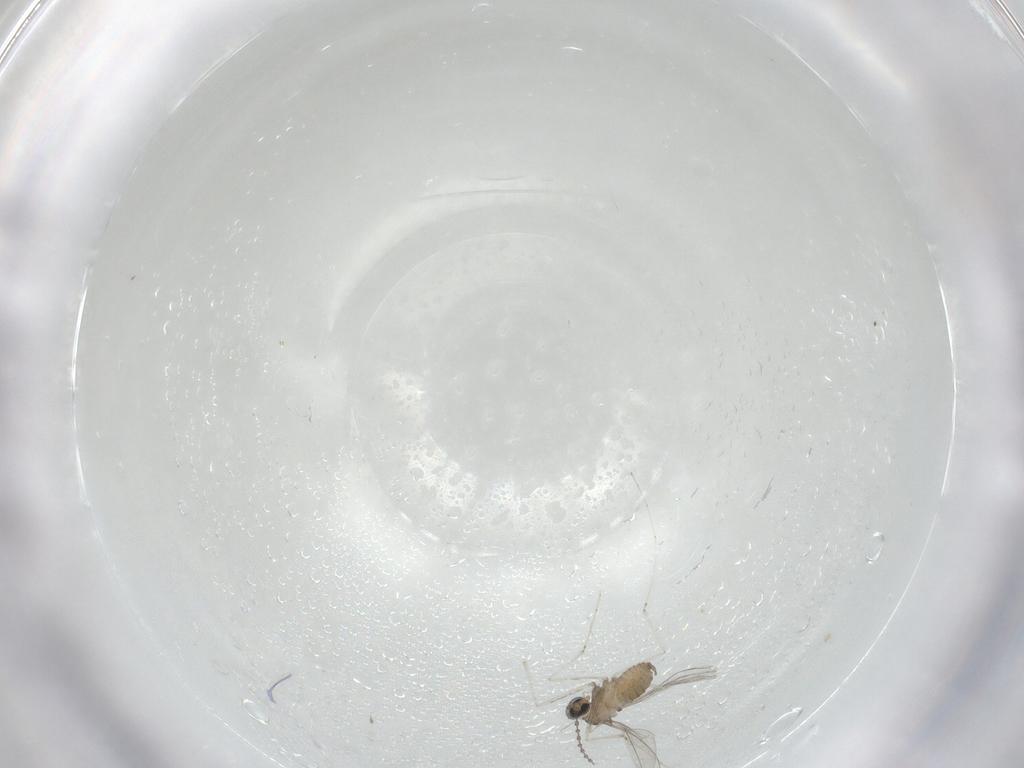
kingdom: Animalia
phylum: Arthropoda
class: Insecta
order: Diptera
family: Cecidomyiidae
